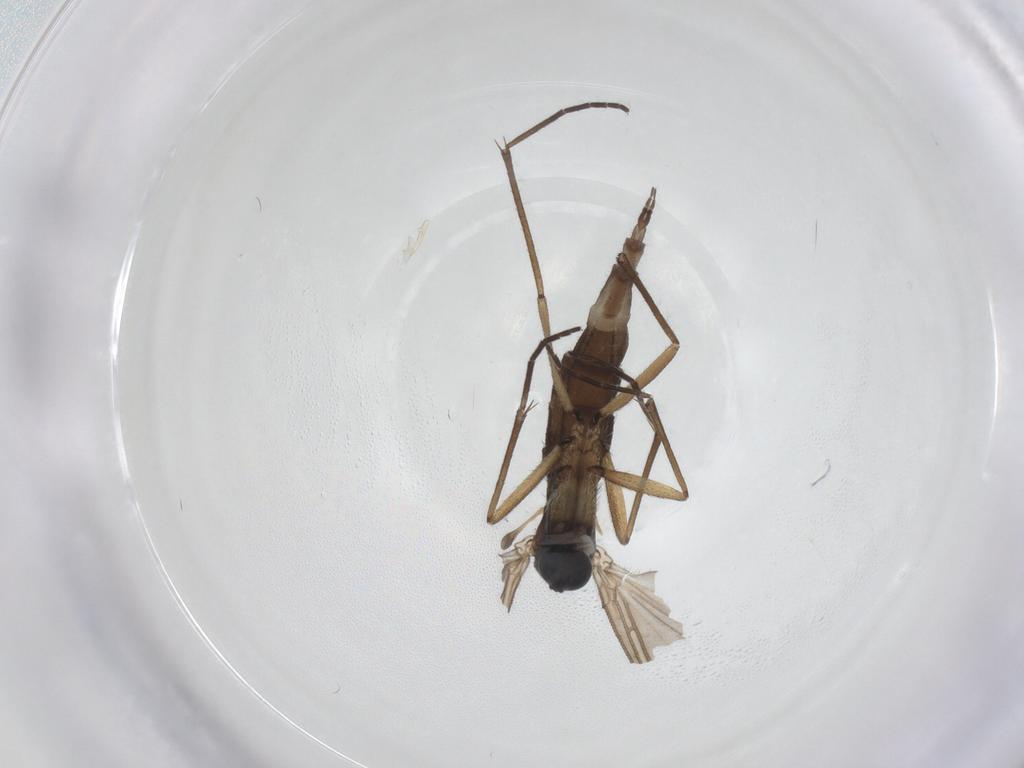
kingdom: Animalia
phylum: Arthropoda
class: Insecta
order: Diptera
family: Sciaridae
